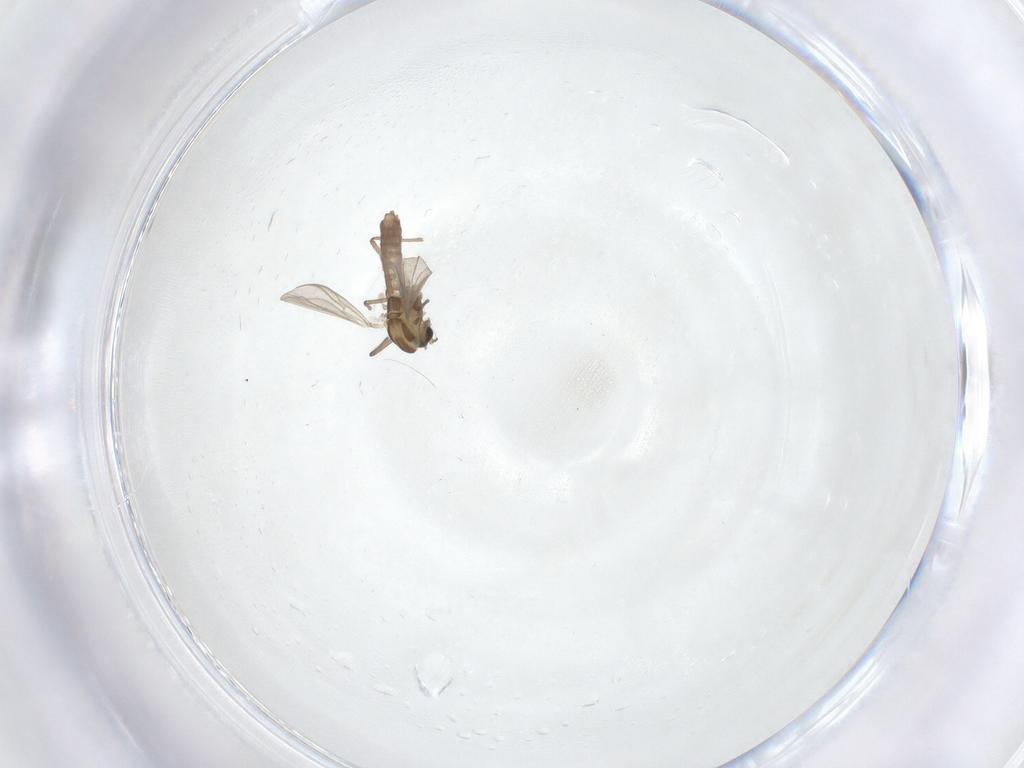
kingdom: Animalia
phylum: Arthropoda
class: Insecta
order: Diptera
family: Chironomidae
